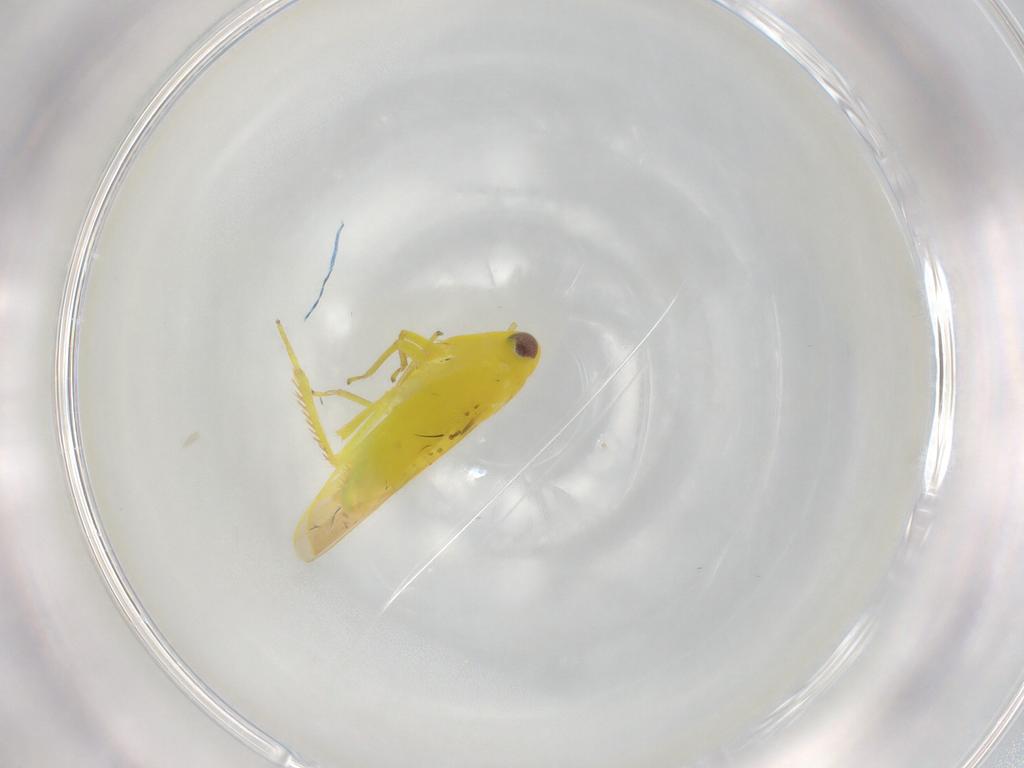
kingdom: Animalia
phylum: Arthropoda
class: Insecta
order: Hemiptera
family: Cicadellidae
